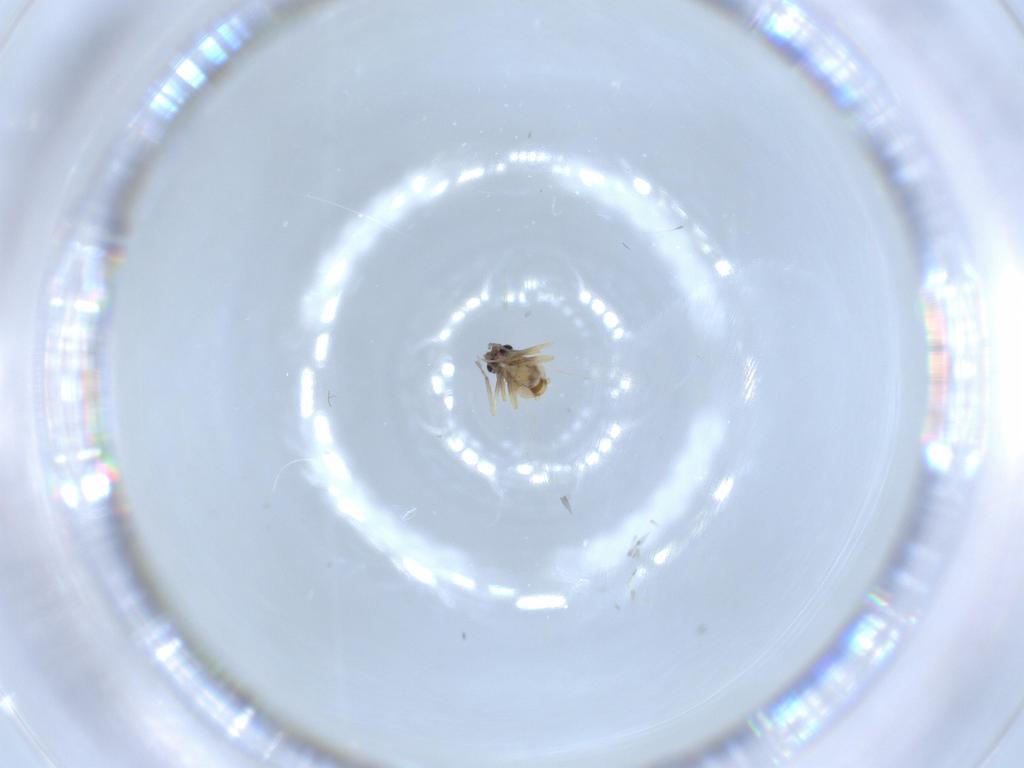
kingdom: Animalia
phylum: Arthropoda
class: Insecta
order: Diptera
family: Ceratopogonidae
